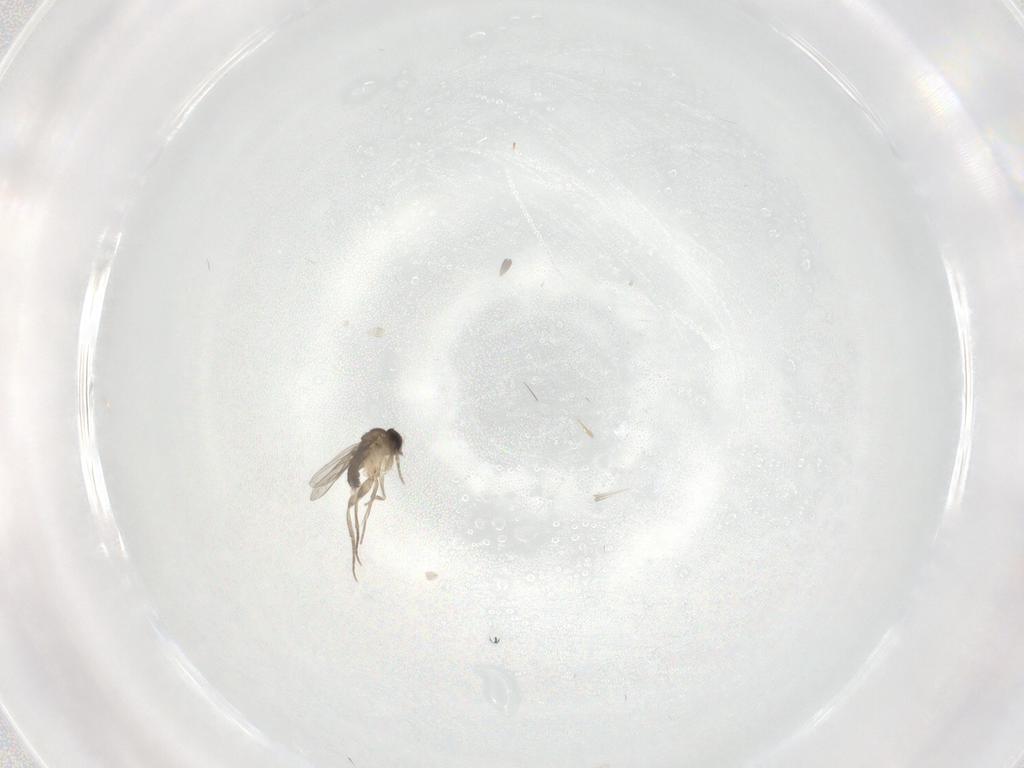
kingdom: Animalia
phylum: Arthropoda
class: Insecta
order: Diptera
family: Phoridae
